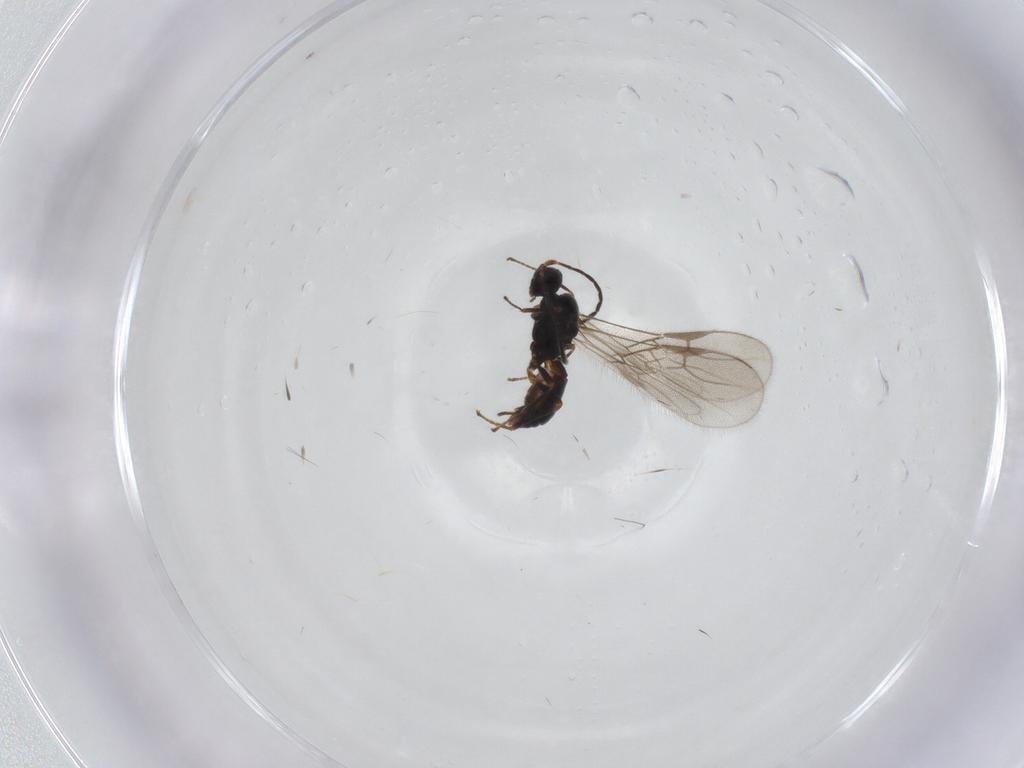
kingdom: Animalia
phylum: Arthropoda
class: Insecta
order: Hymenoptera
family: Braconidae
